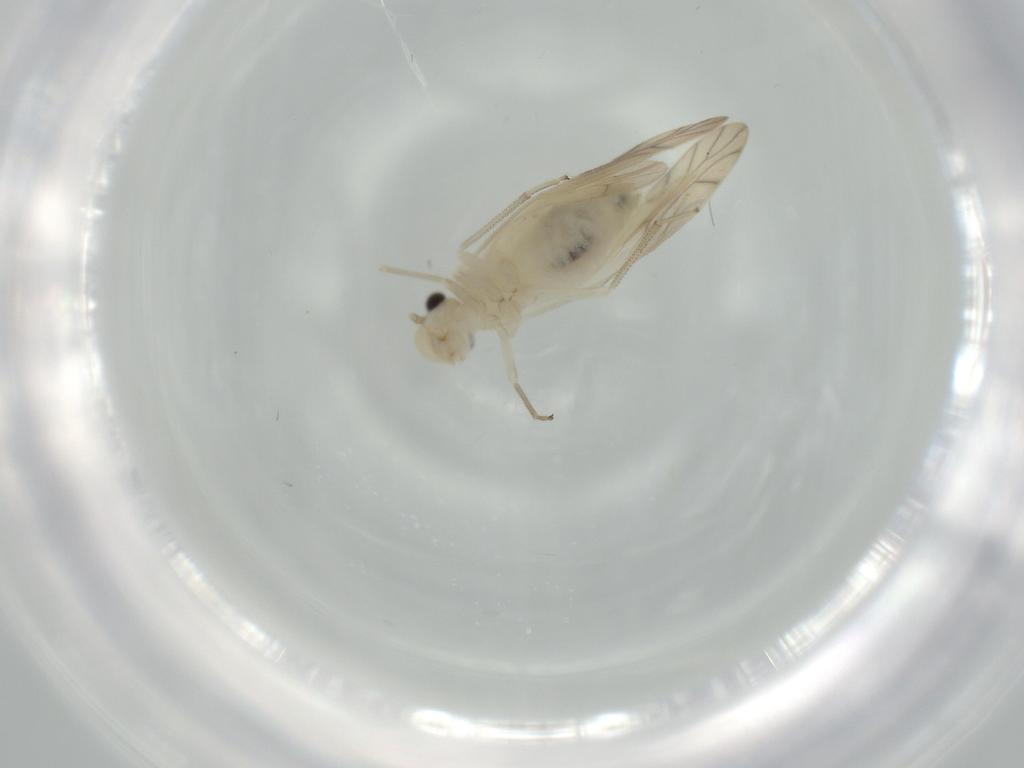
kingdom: Animalia
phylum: Arthropoda
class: Insecta
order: Psocodea
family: Caeciliusidae
